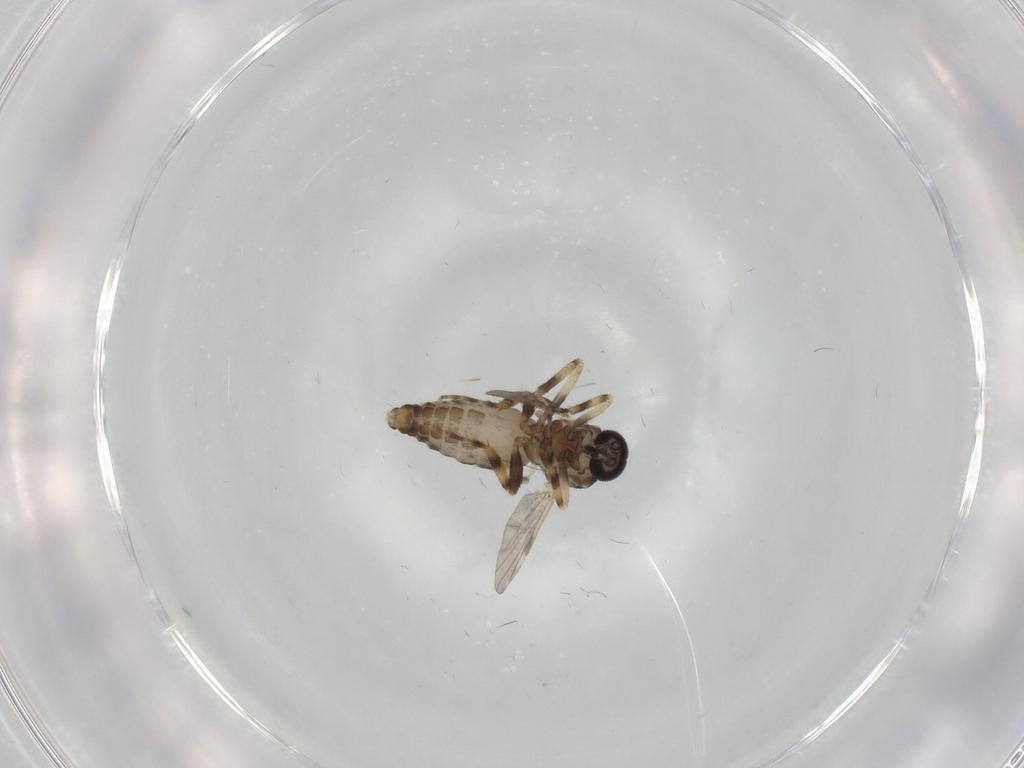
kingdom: Animalia
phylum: Arthropoda
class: Insecta
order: Diptera
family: Ceratopogonidae
